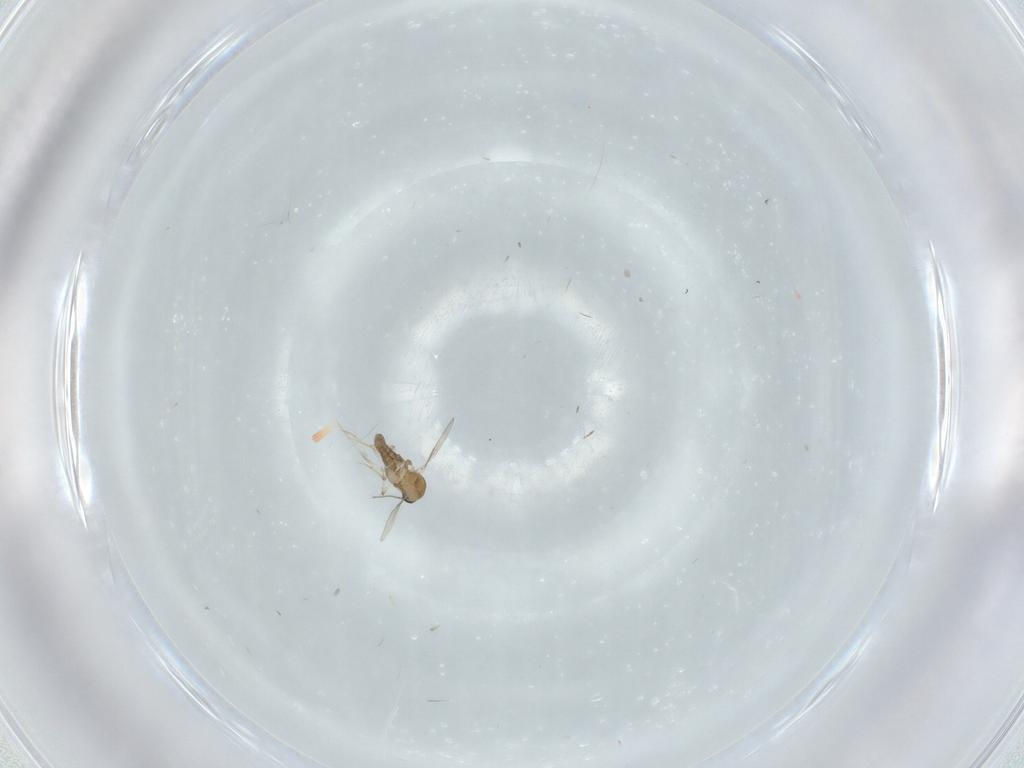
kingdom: Animalia
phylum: Arthropoda
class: Insecta
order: Diptera
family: Ceratopogonidae
